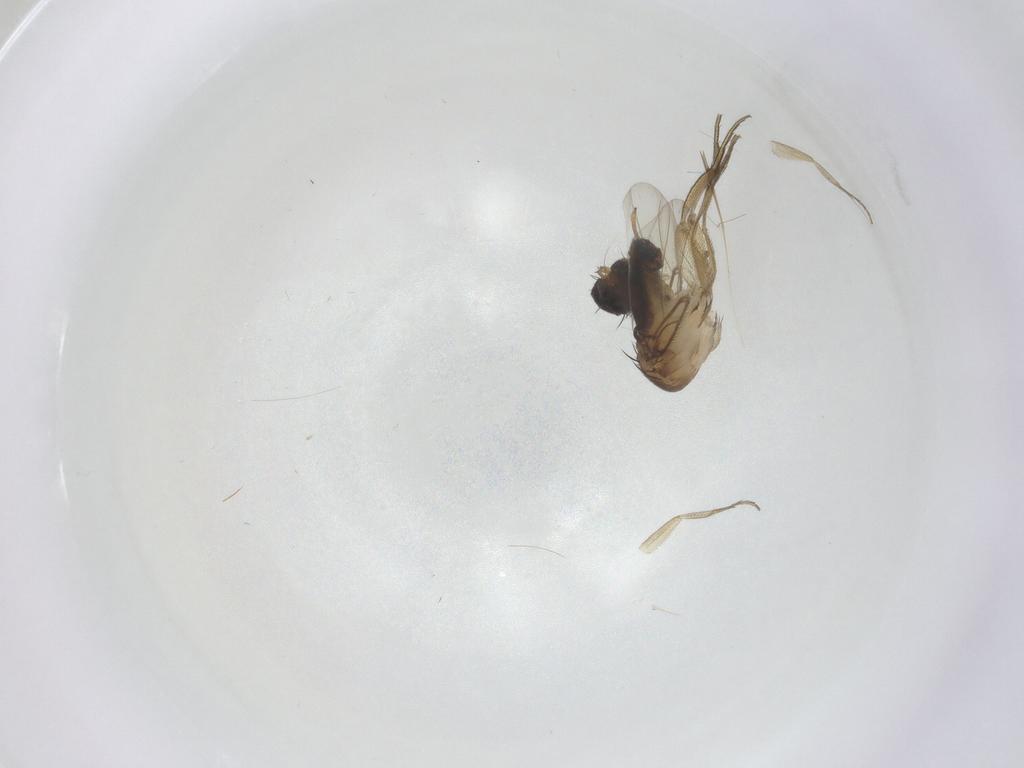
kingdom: Animalia
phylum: Arthropoda
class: Insecta
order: Diptera
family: Phoridae
